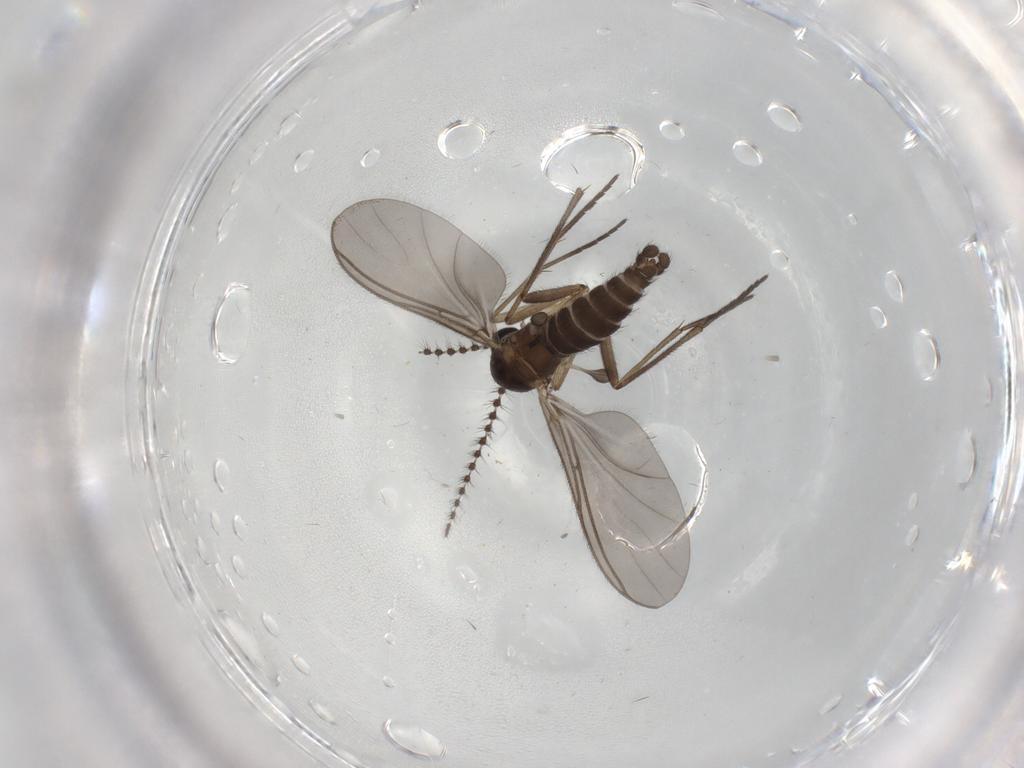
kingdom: Animalia
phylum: Arthropoda
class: Insecta
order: Diptera
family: Sciaridae
